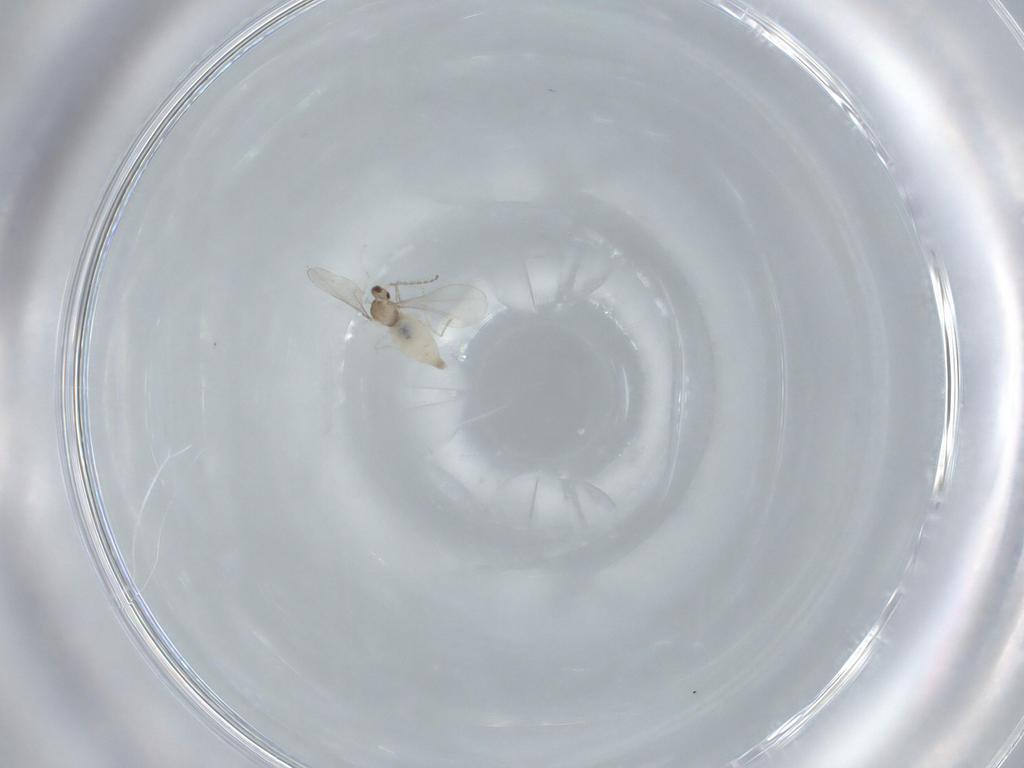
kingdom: Animalia
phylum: Arthropoda
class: Insecta
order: Diptera
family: Cecidomyiidae
